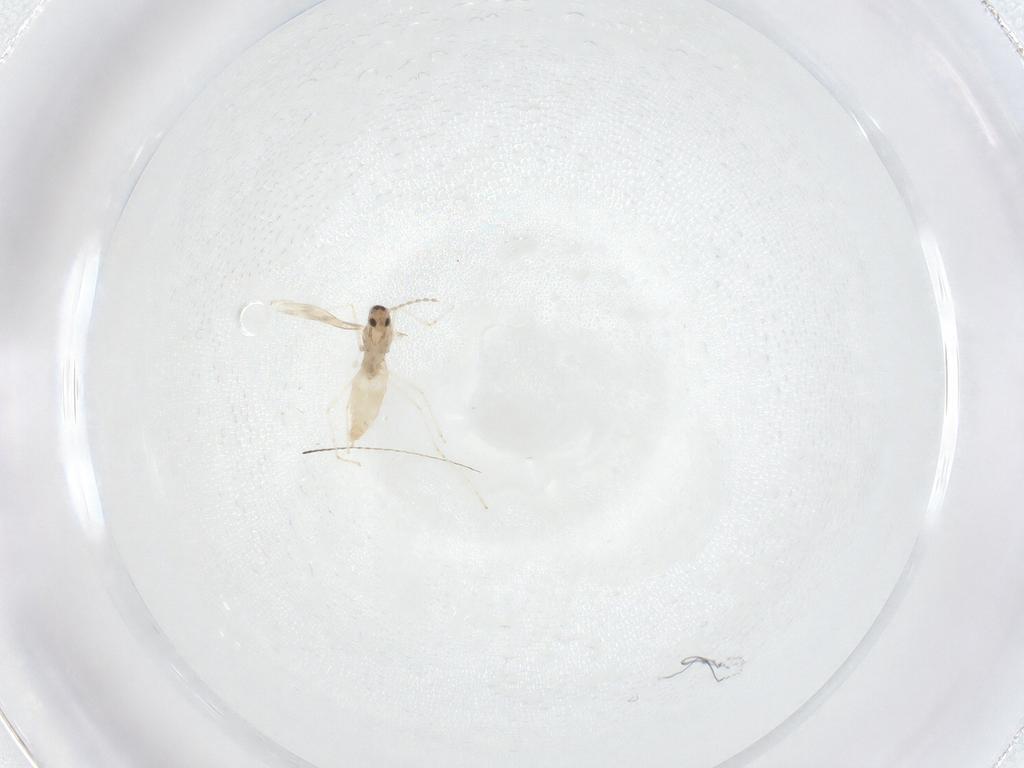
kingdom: Animalia
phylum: Arthropoda
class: Insecta
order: Diptera
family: Cecidomyiidae
